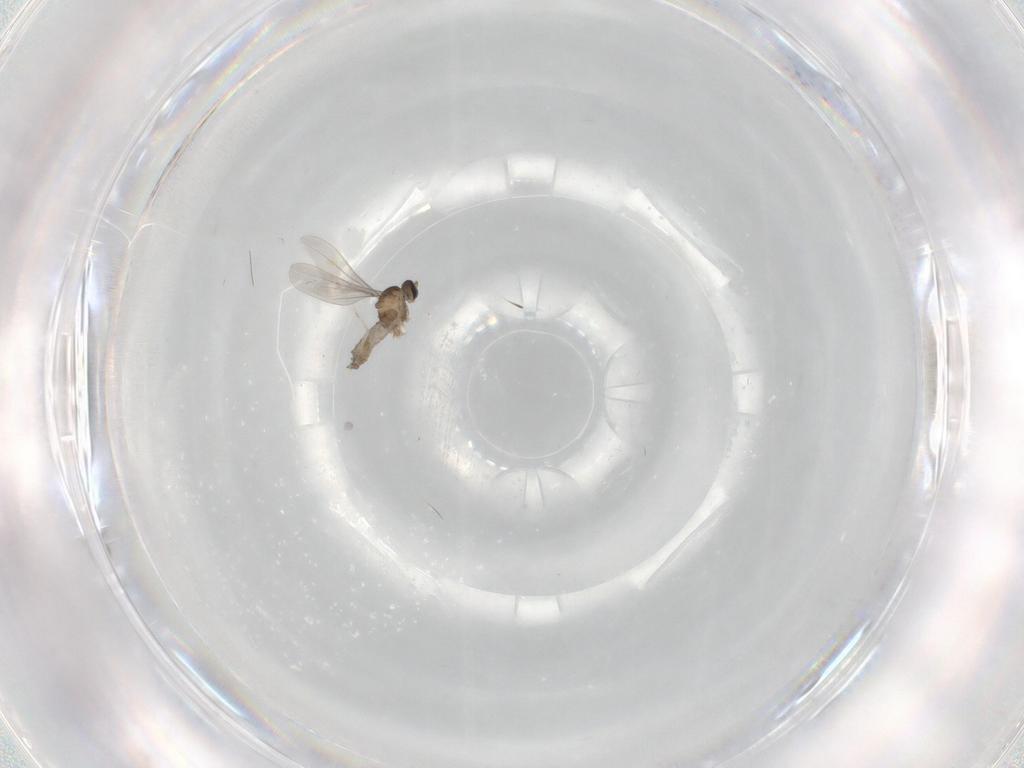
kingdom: Animalia
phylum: Arthropoda
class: Insecta
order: Diptera
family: Cecidomyiidae
